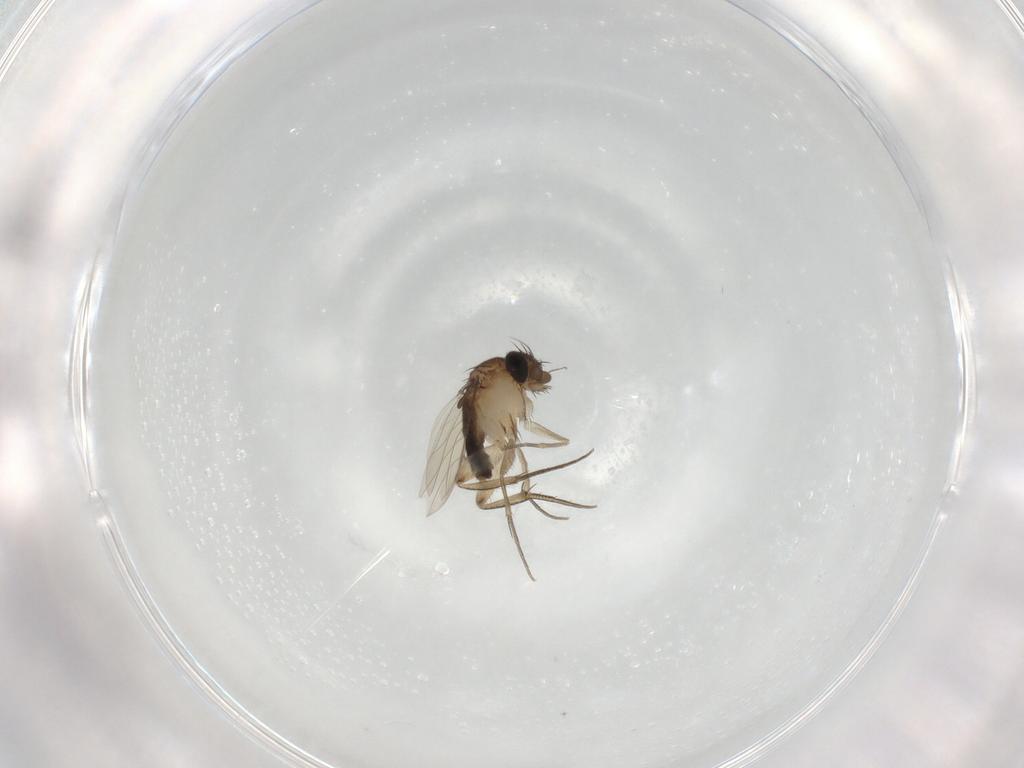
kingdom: Animalia
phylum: Arthropoda
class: Insecta
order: Diptera
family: Phoridae
